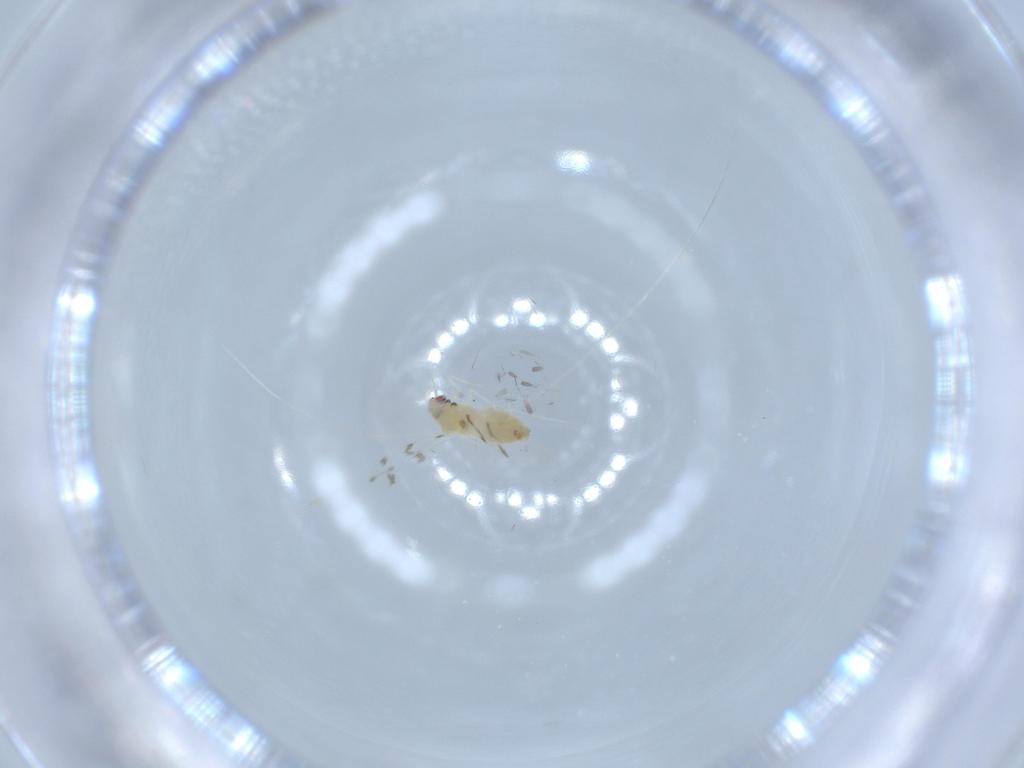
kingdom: Animalia
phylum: Arthropoda
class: Insecta
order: Hemiptera
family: Aleyrodidae
